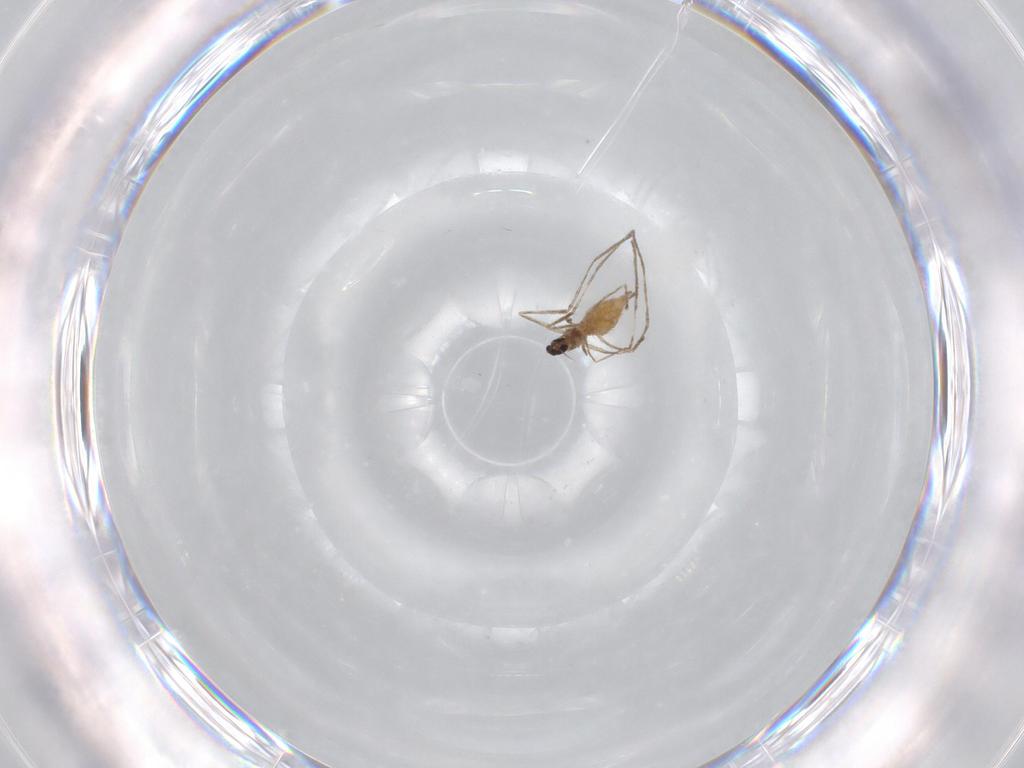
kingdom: Animalia
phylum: Arthropoda
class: Insecta
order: Diptera
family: Cecidomyiidae
